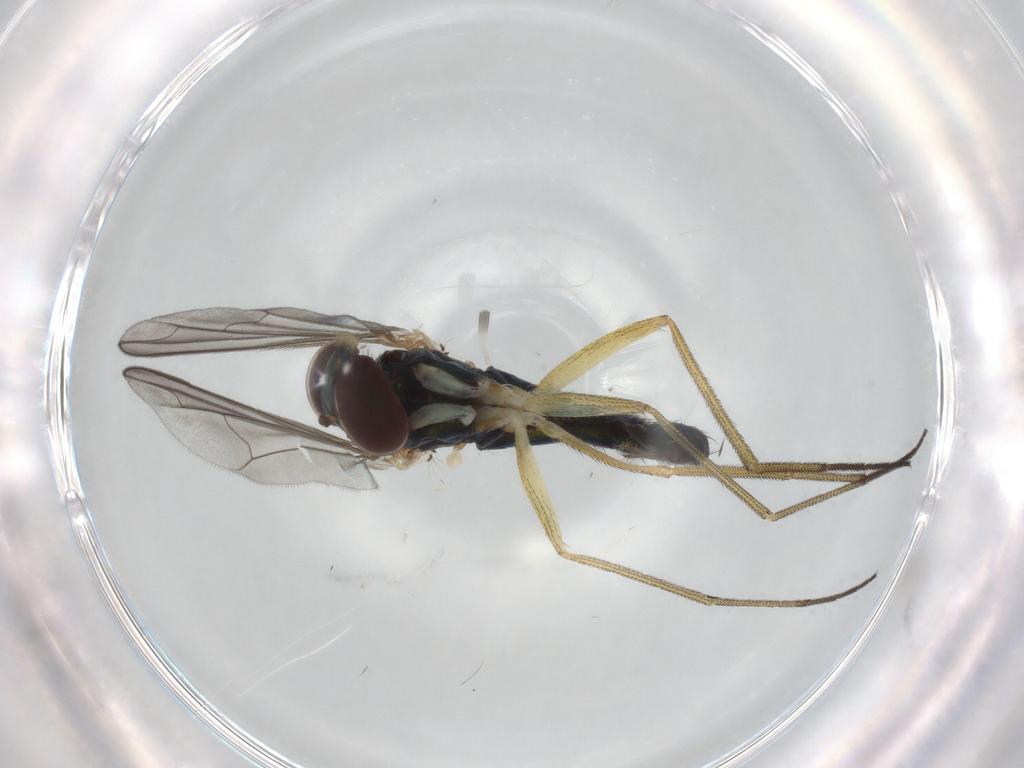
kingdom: Animalia
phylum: Arthropoda
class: Insecta
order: Diptera
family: Dolichopodidae
